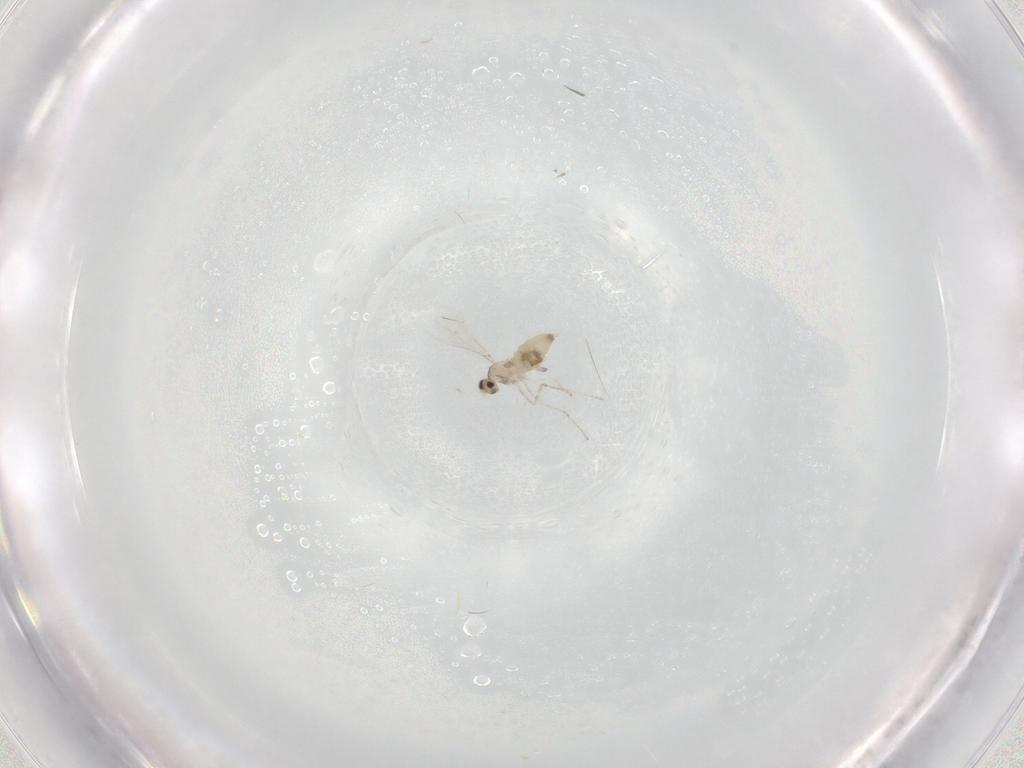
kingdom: Animalia
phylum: Arthropoda
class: Insecta
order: Diptera
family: Cecidomyiidae
